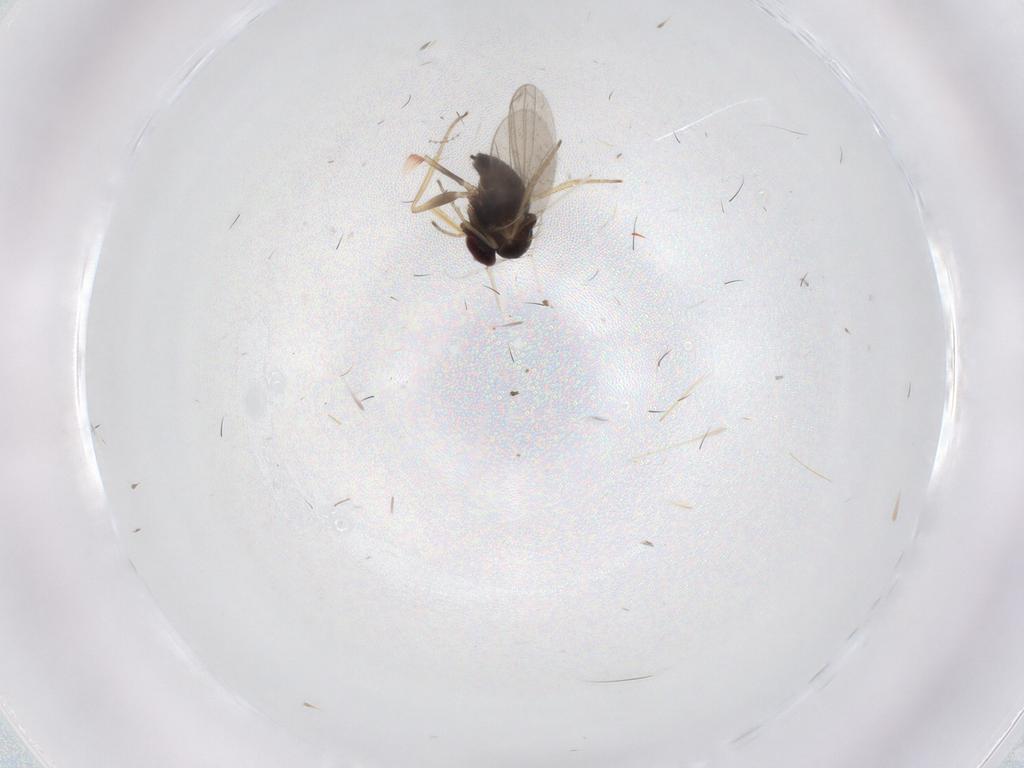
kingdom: Animalia
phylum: Arthropoda
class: Insecta
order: Diptera
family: Dolichopodidae
